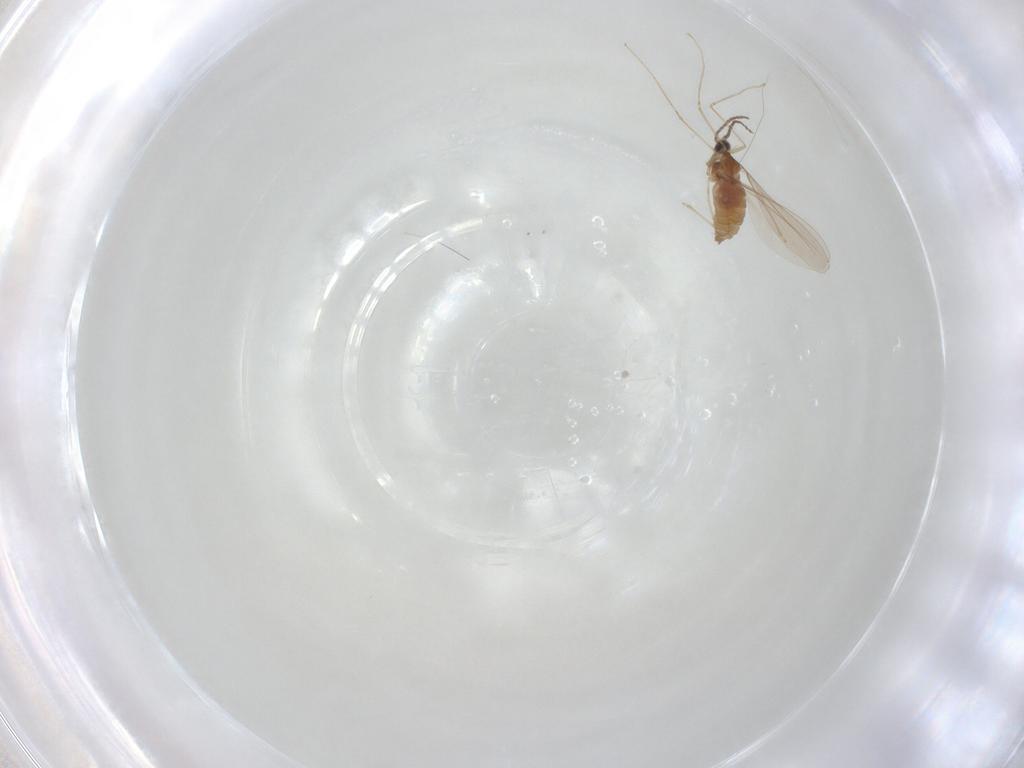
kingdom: Animalia
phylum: Arthropoda
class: Insecta
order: Diptera
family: Cecidomyiidae
